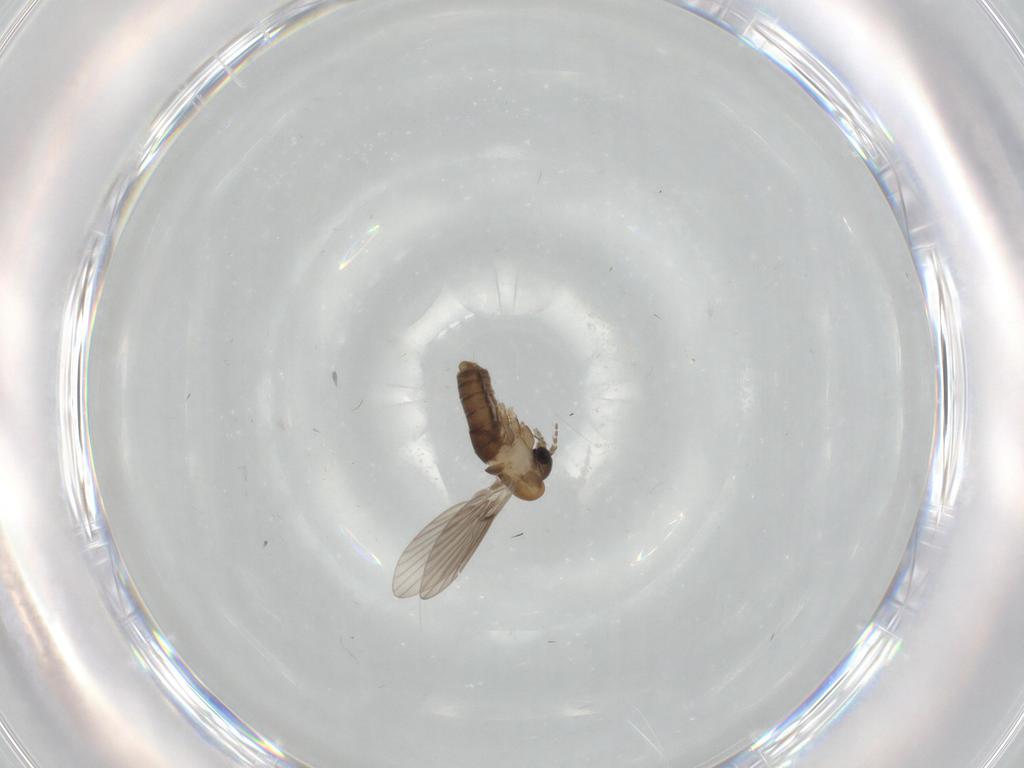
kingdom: Animalia
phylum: Arthropoda
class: Insecta
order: Diptera
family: Psychodidae
